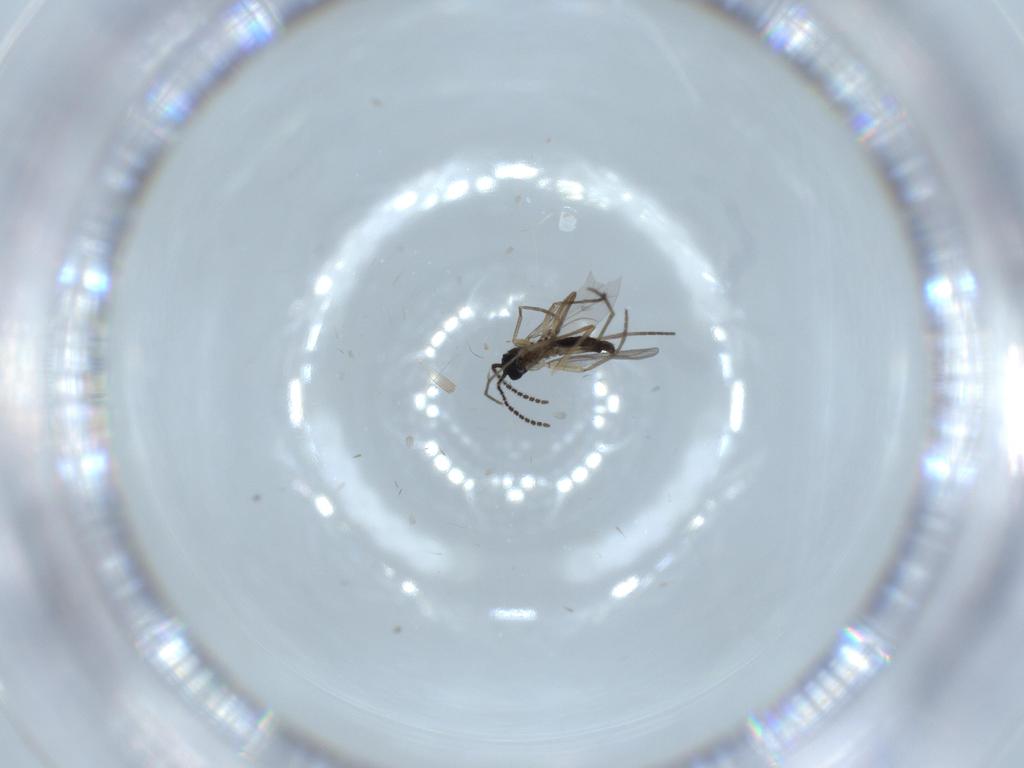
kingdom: Animalia
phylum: Arthropoda
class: Insecta
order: Diptera
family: Sciaridae
